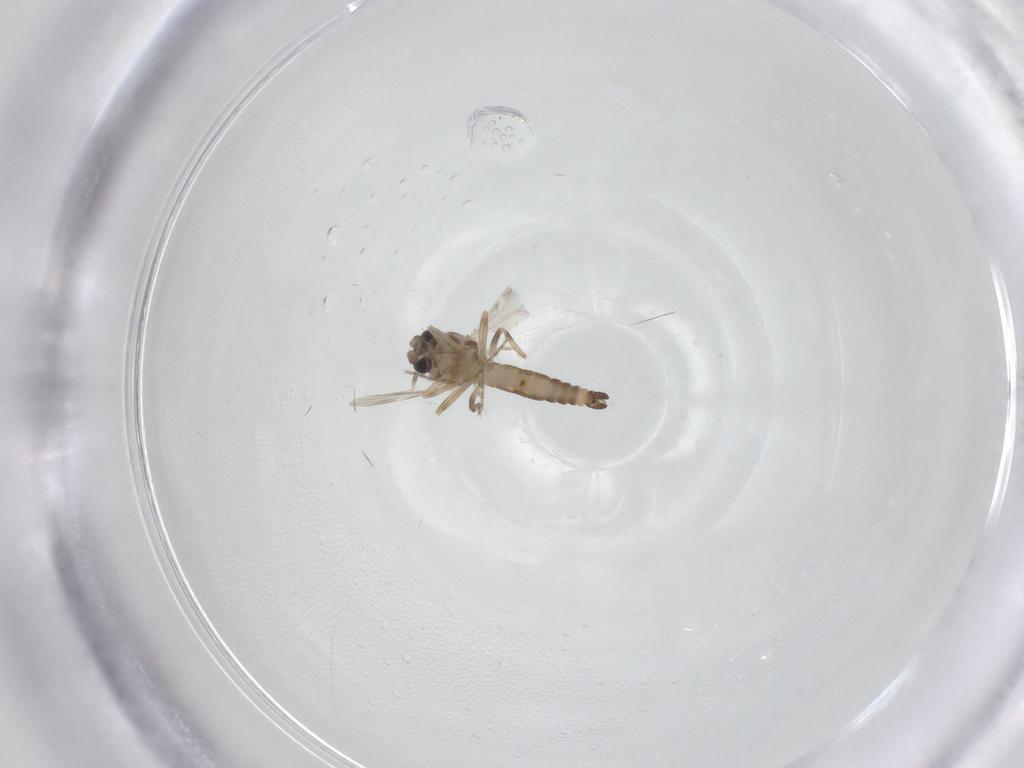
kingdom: Animalia
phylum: Arthropoda
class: Insecta
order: Diptera
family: Ceratopogonidae
